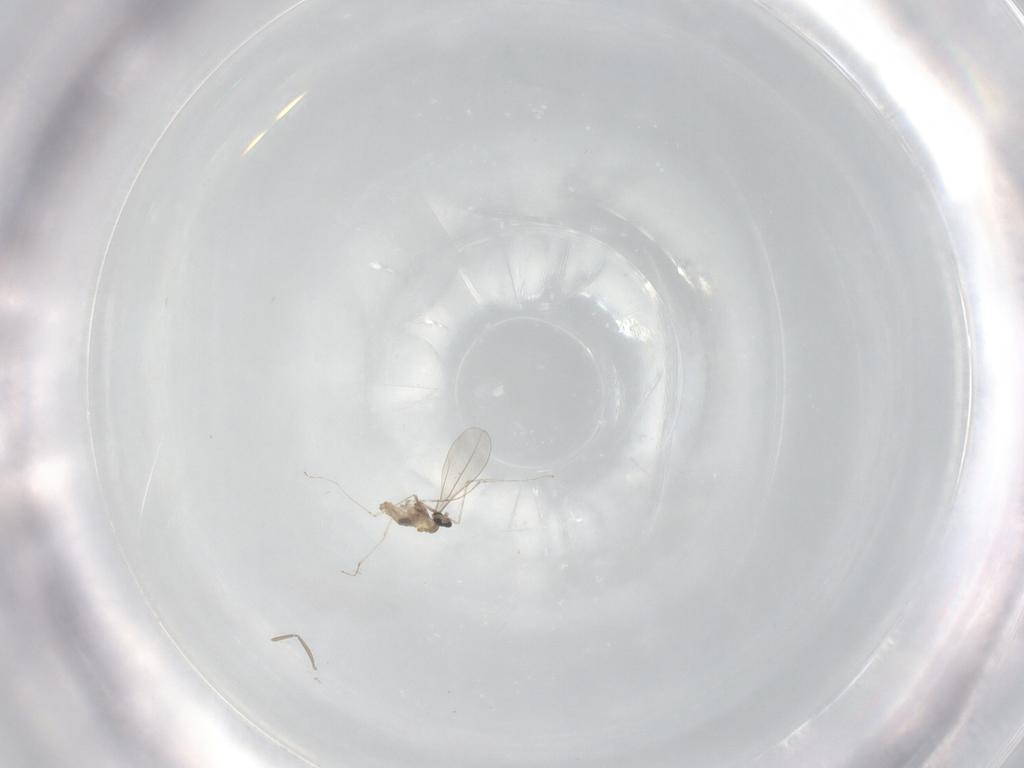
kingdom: Animalia
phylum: Arthropoda
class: Insecta
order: Diptera
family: Cecidomyiidae
